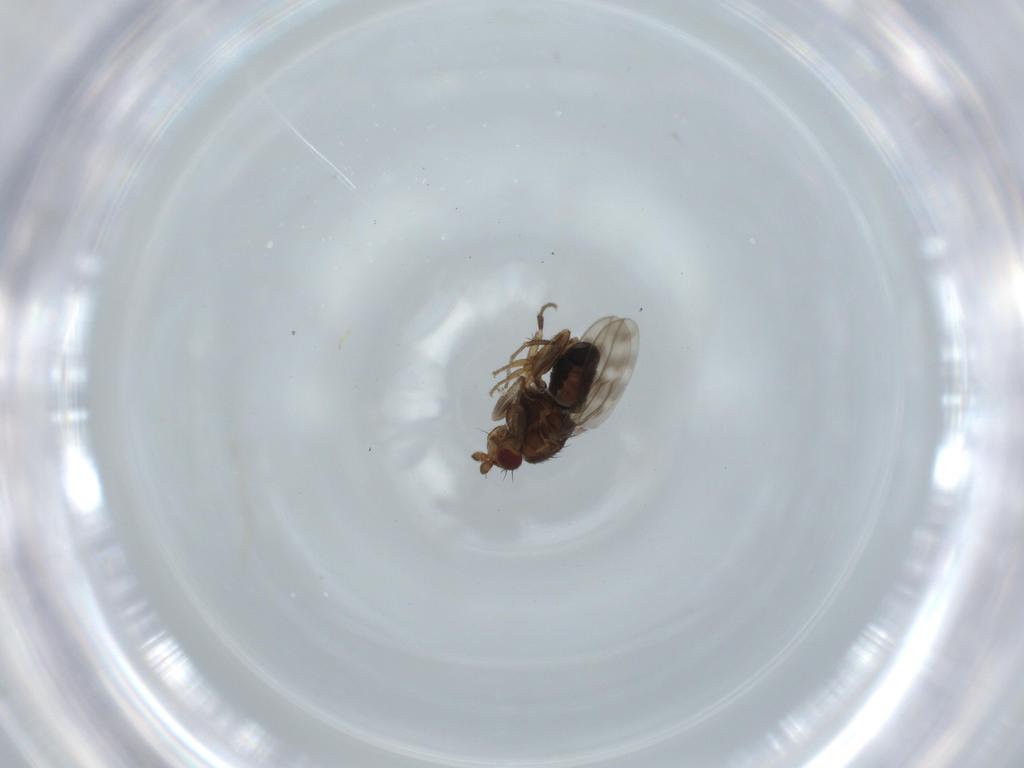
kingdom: Animalia
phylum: Arthropoda
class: Insecta
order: Diptera
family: Sphaeroceridae
